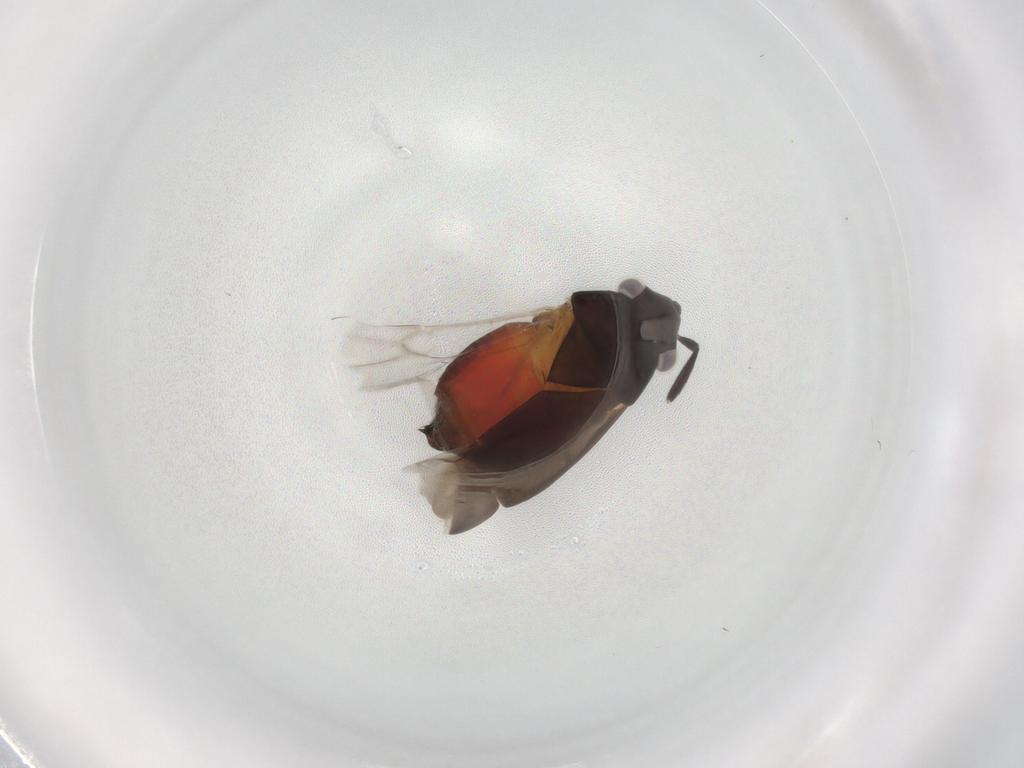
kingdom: Animalia
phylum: Arthropoda
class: Insecta
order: Hemiptera
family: Miridae
